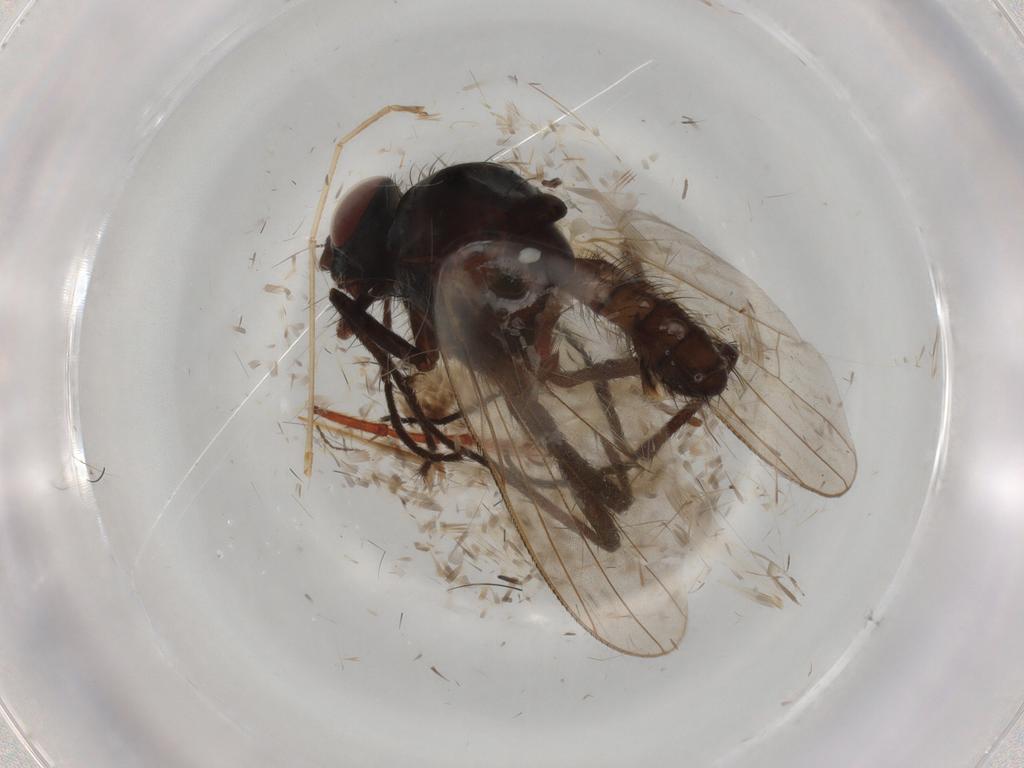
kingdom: Animalia
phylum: Arthropoda
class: Insecta
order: Diptera
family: Anthomyiidae
